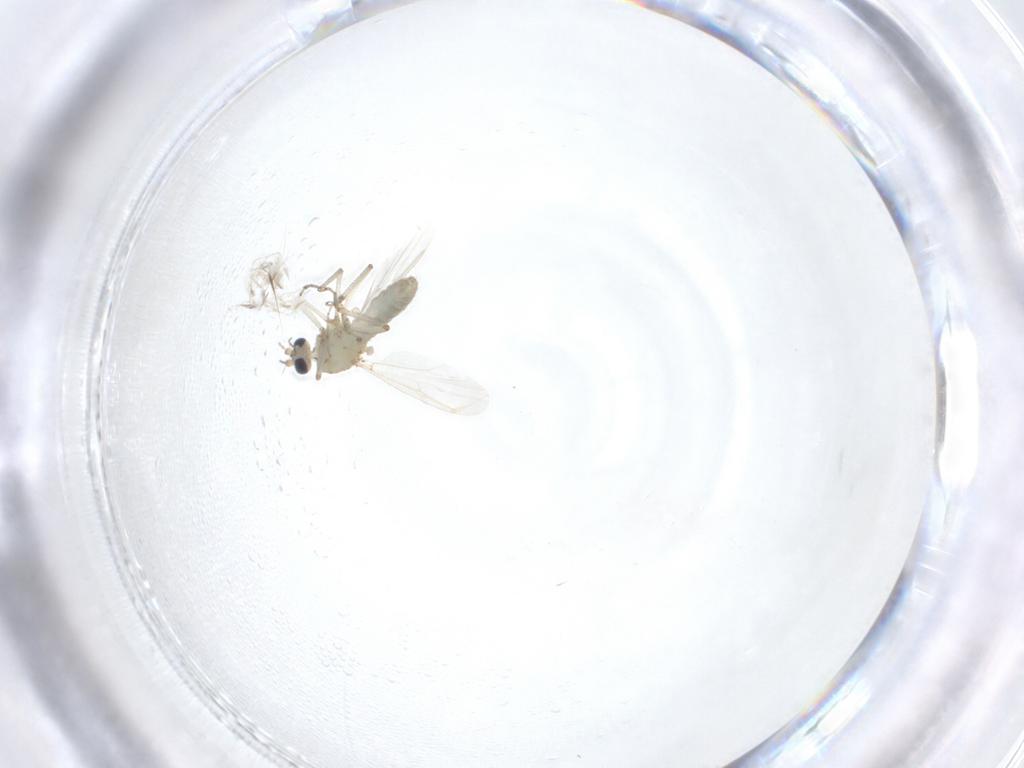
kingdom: Animalia
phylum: Arthropoda
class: Insecta
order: Diptera
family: Ceratopogonidae
